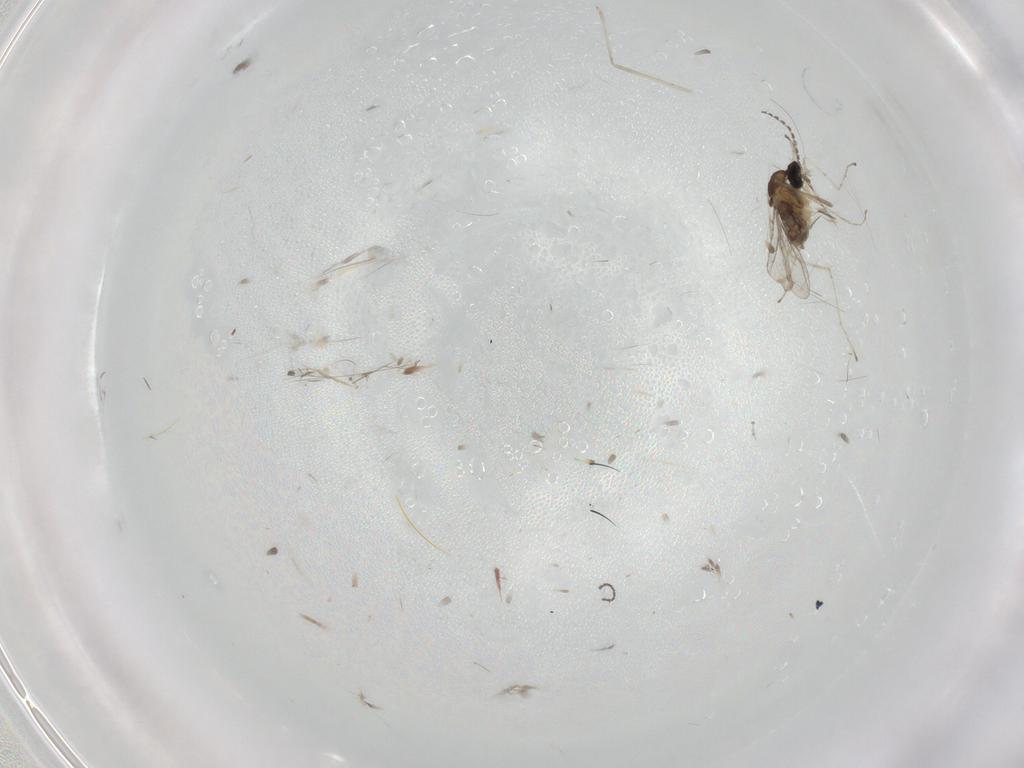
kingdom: Animalia
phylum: Arthropoda
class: Insecta
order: Diptera
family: Cecidomyiidae
